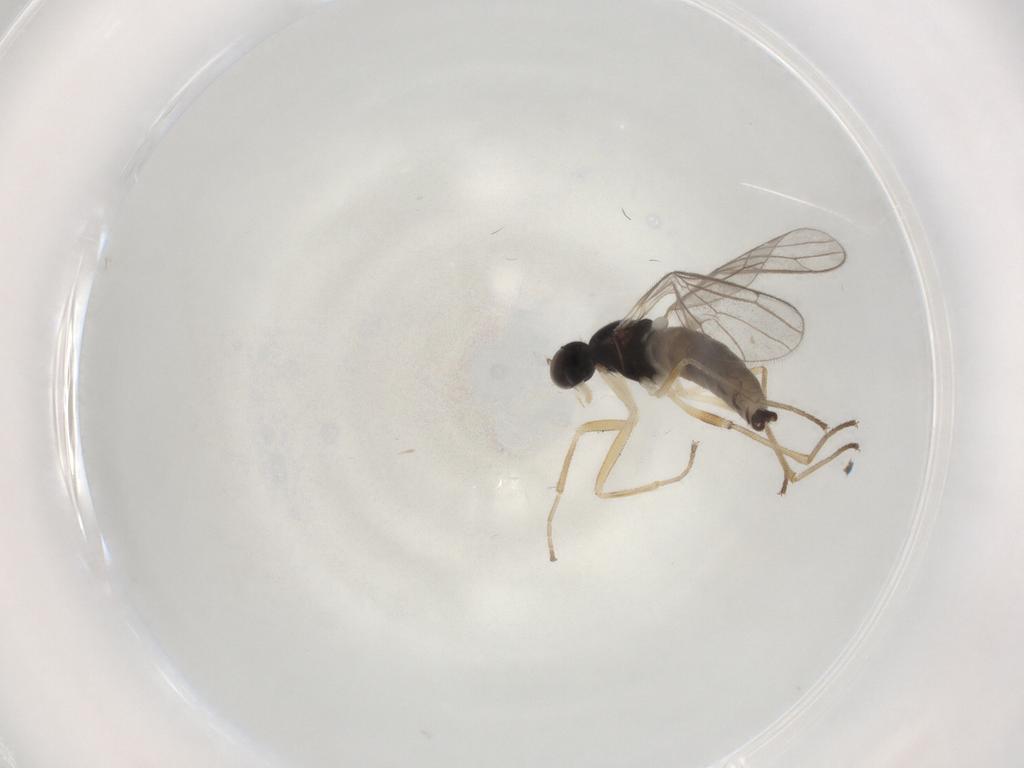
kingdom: Animalia
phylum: Arthropoda
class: Insecta
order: Diptera
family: Empididae
